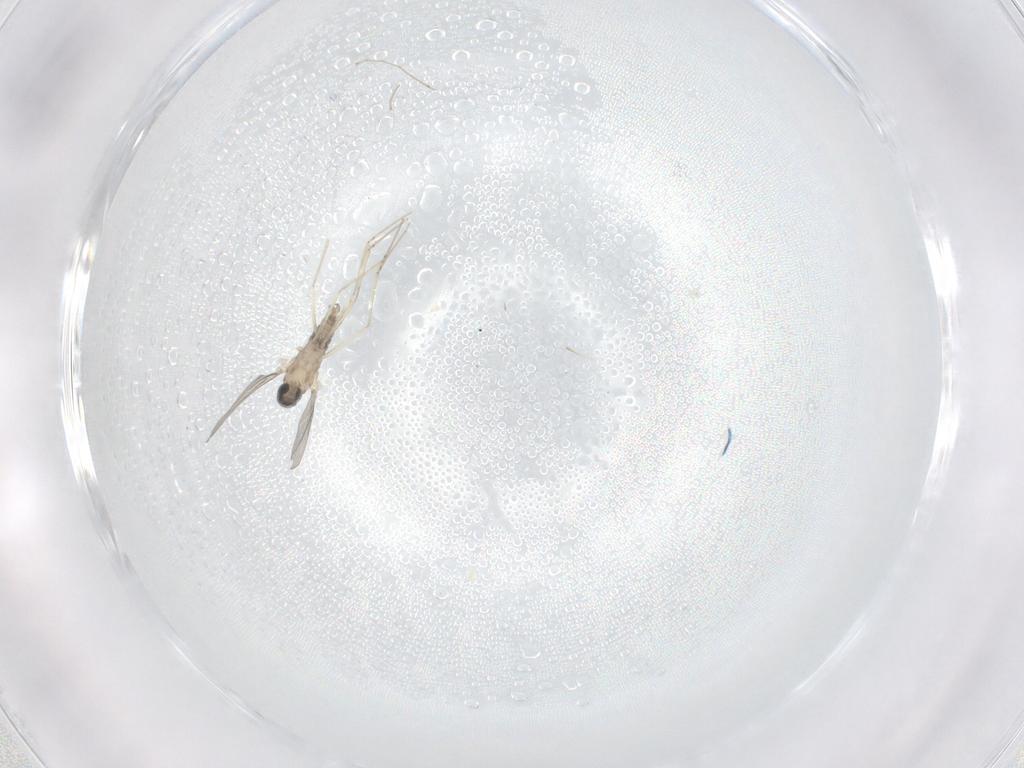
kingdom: Animalia
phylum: Arthropoda
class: Insecta
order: Diptera
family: Cecidomyiidae
